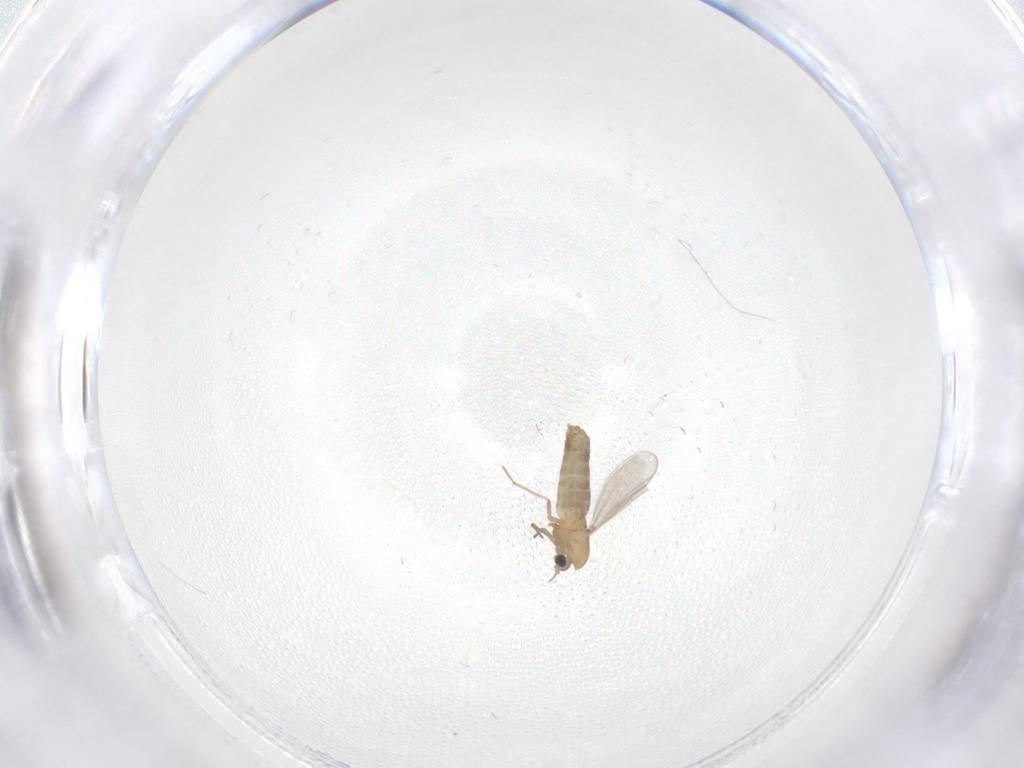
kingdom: Animalia
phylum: Arthropoda
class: Insecta
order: Diptera
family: Chironomidae
